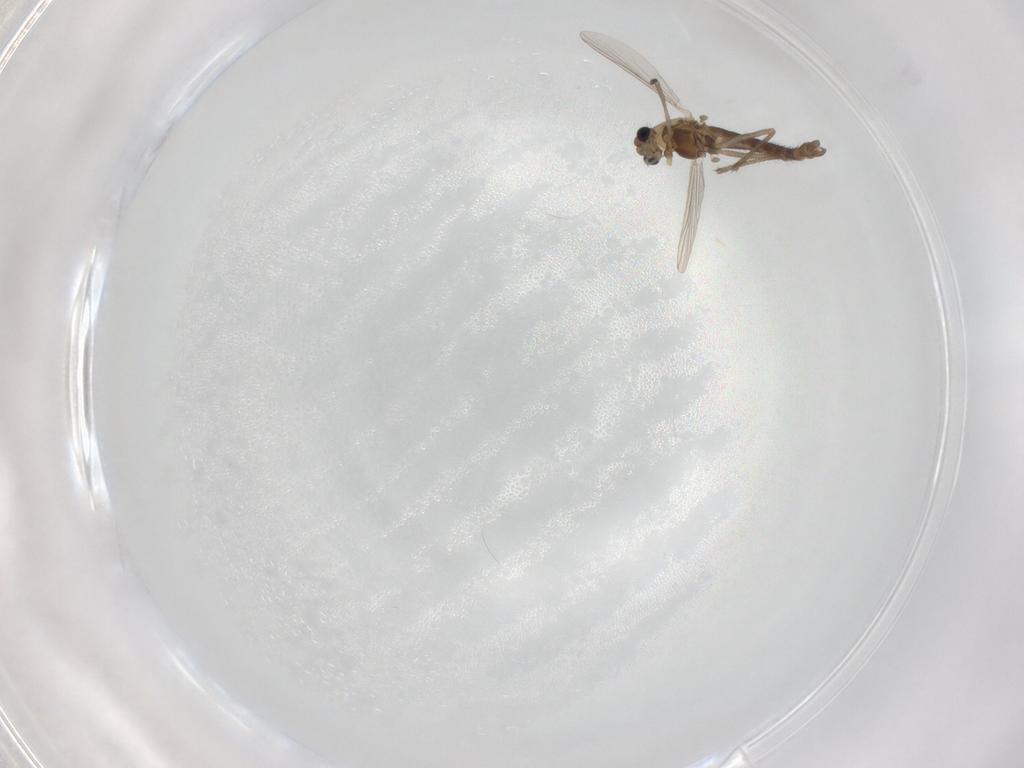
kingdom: Animalia
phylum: Arthropoda
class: Insecta
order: Diptera
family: Chironomidae
